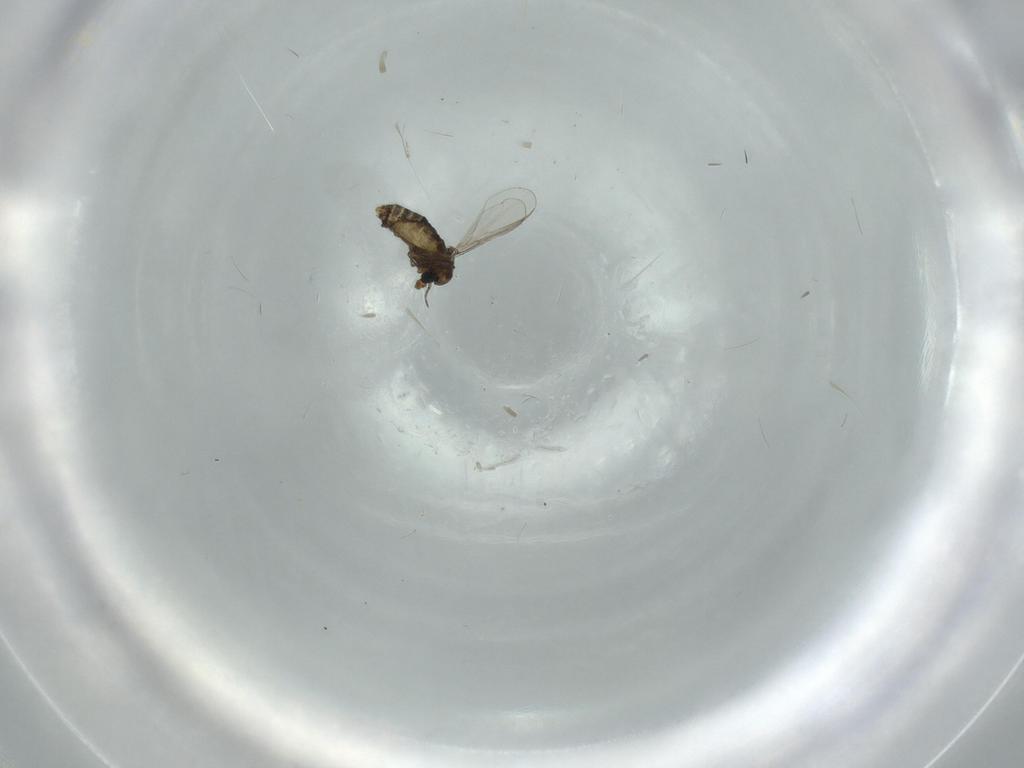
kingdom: Animalia
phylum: Arthropoda
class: Insecta
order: Diptera
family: Chironomidae
